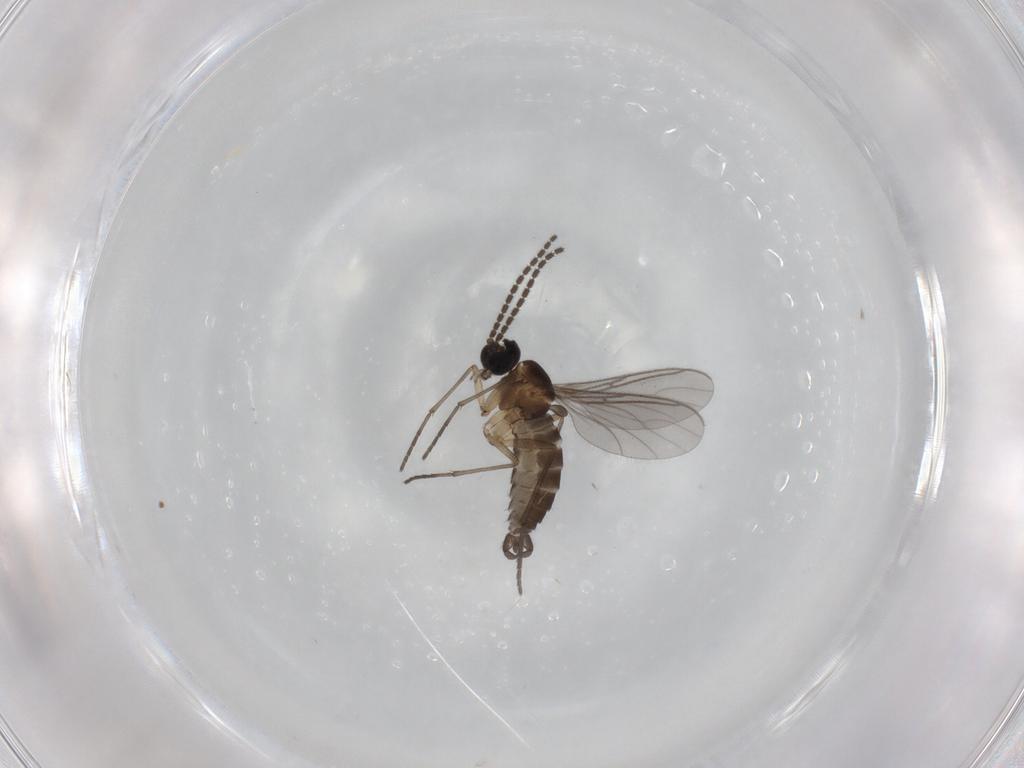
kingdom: Animalia
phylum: Arthropoda
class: Insecta
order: Diptera
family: Sciaridae
